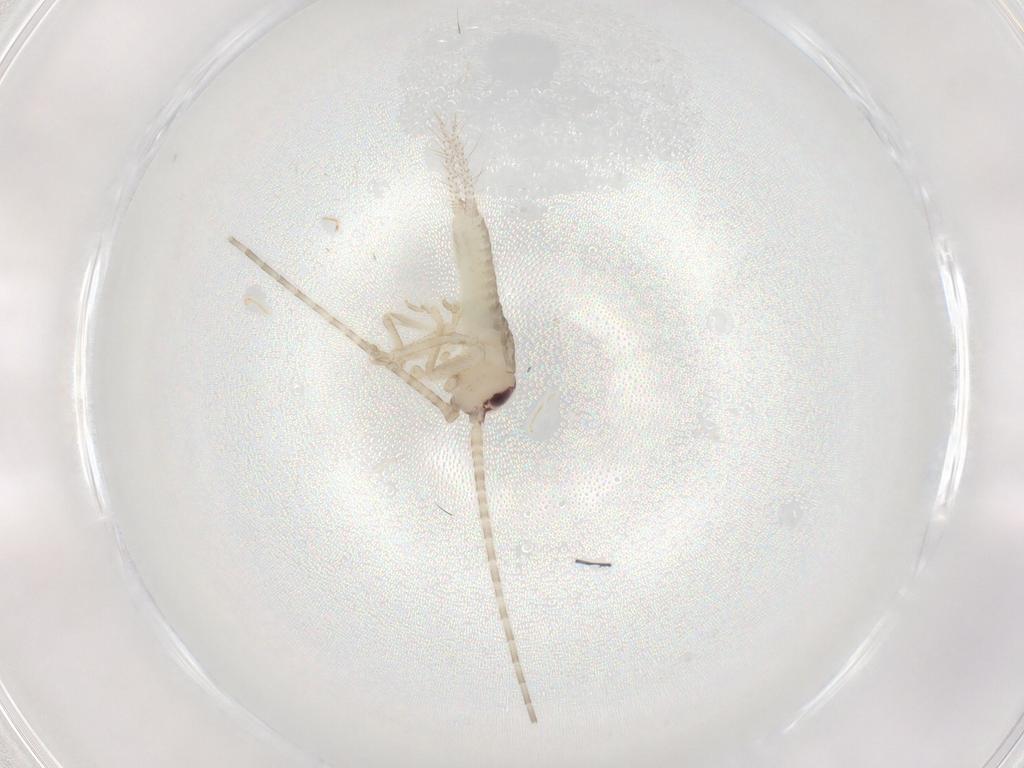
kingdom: Animalia
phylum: Arthropoda
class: Insecta
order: Orthoptera
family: Gryllidae
